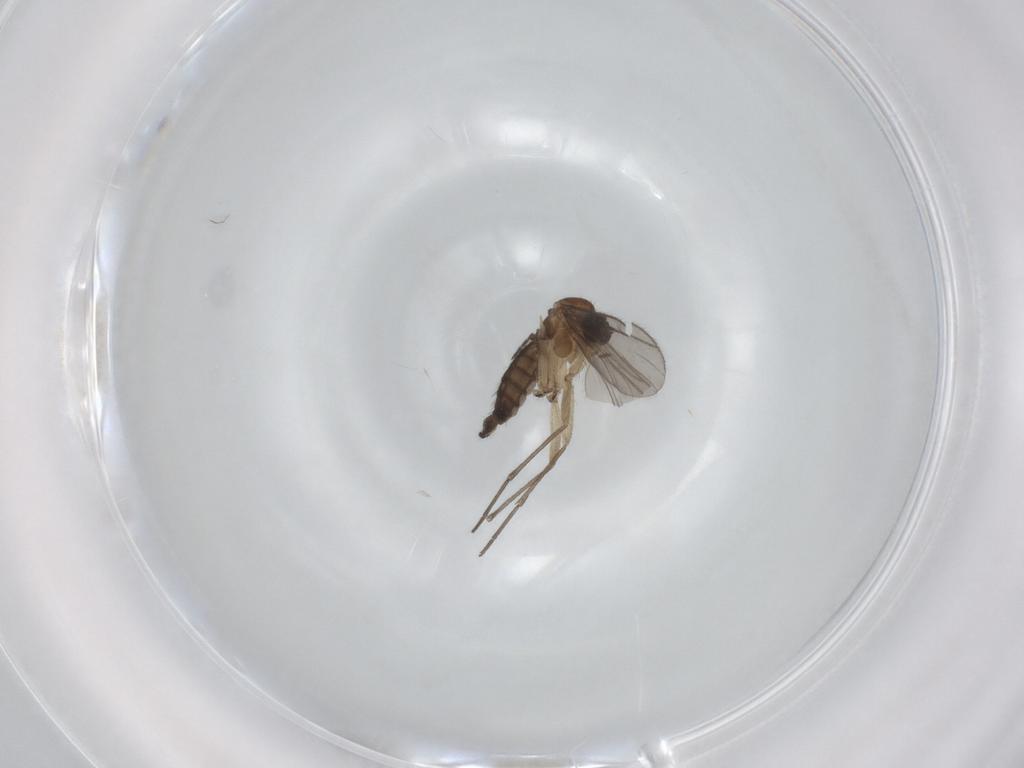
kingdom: Animalia
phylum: Arthropoda
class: Insecta
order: Diptera
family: Sciaridae
